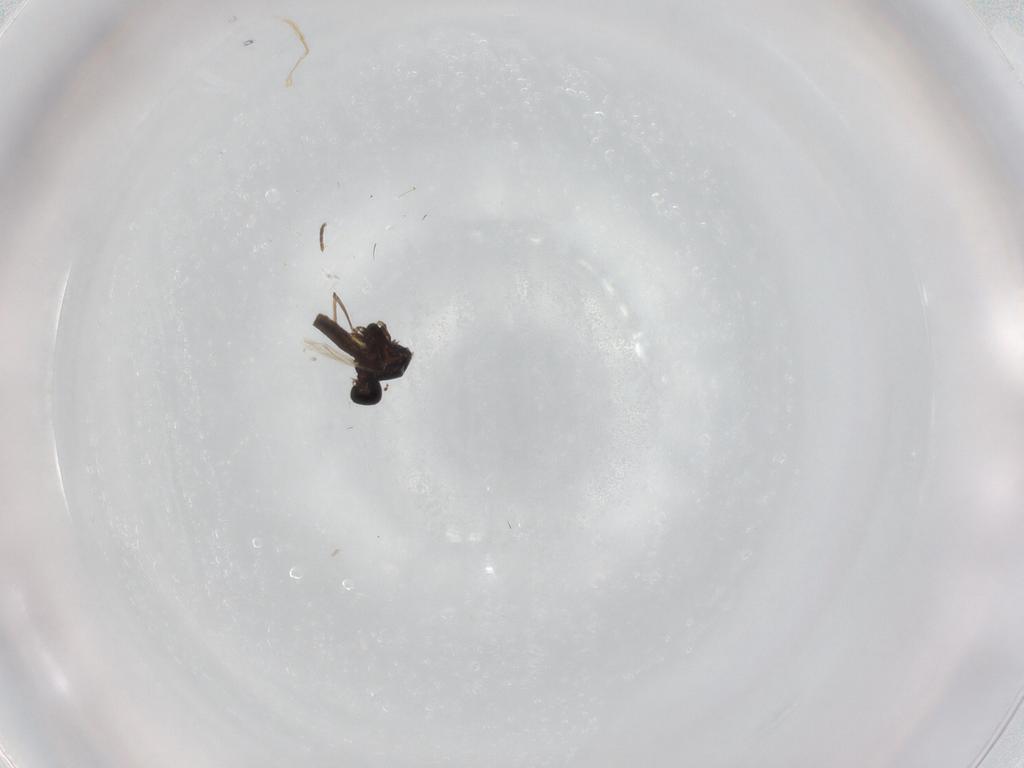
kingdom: Animalia
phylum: Arthropoda
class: Insecta
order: Diptera
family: Ceratopogonidae
